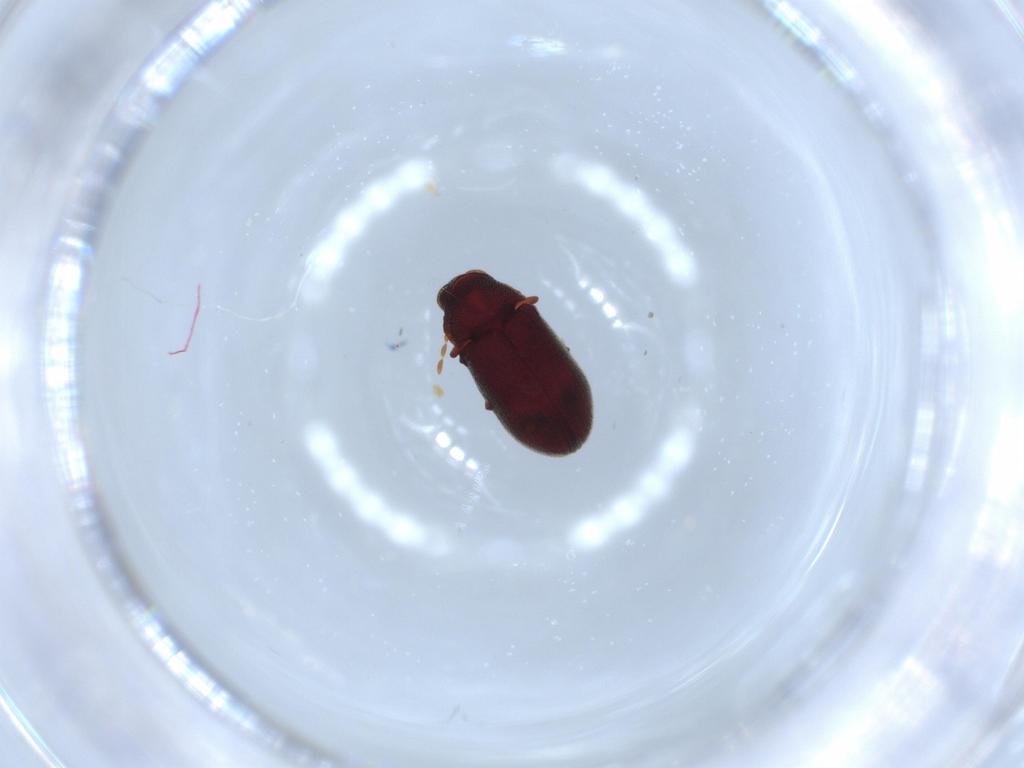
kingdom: Animalia
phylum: Arthropoda
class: Insecta
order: Coleoptera
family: Anobiidae
